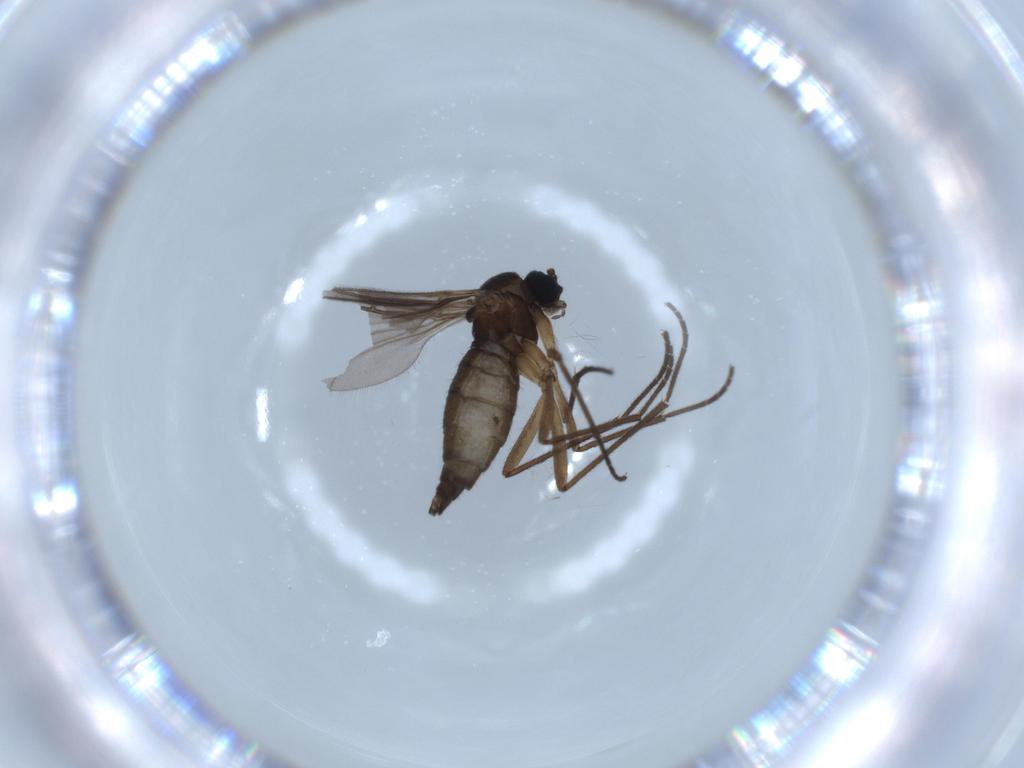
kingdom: Animalia
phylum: Arthropoda
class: Insecta
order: Diptera
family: Sciaridae
